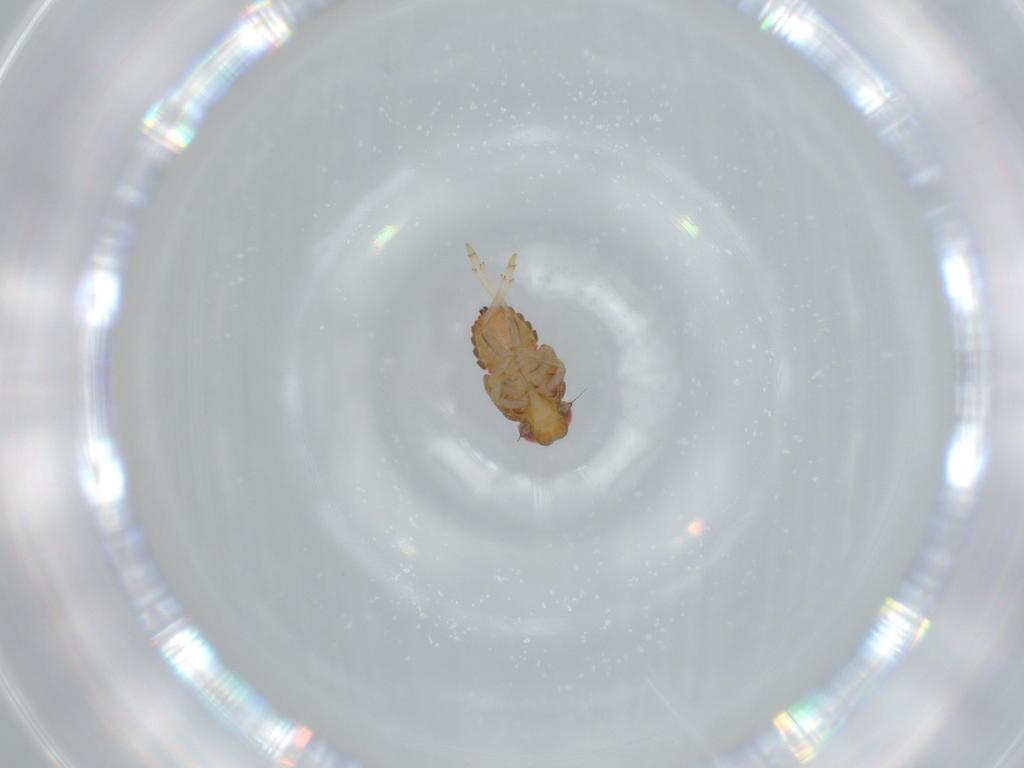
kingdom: Animalia
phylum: Arthropoda
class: Insecta
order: Hemiptera
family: Issidae
